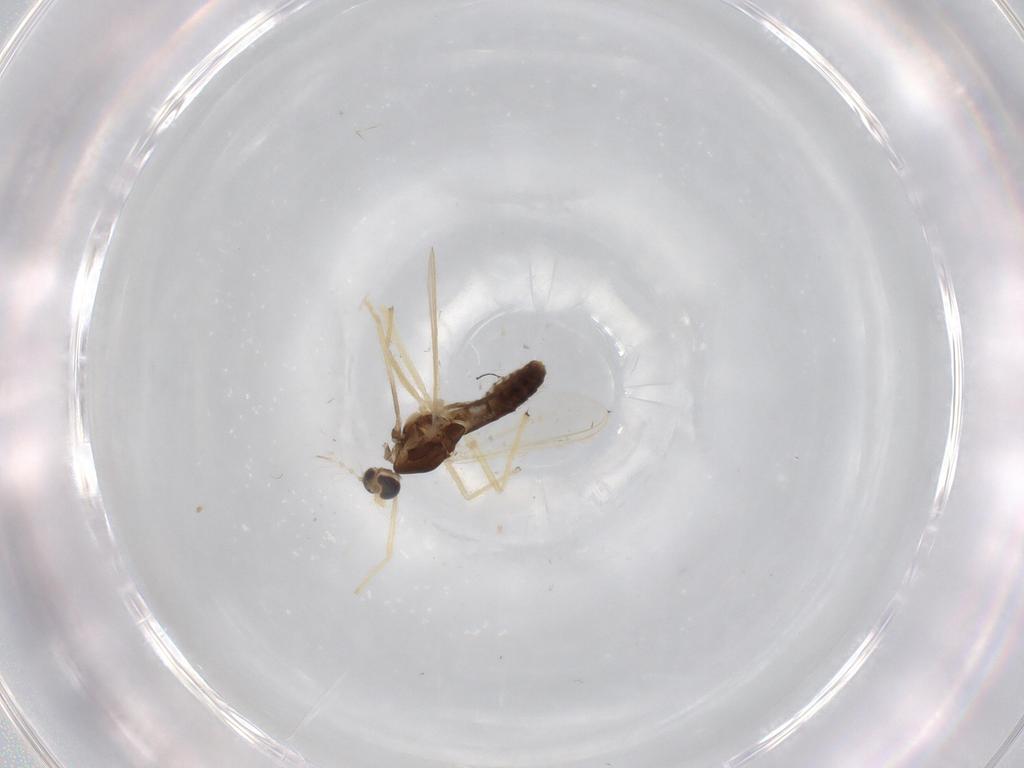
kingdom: Animalia
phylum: Arthropoda
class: Insecta
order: Diptera
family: Chironomidae
